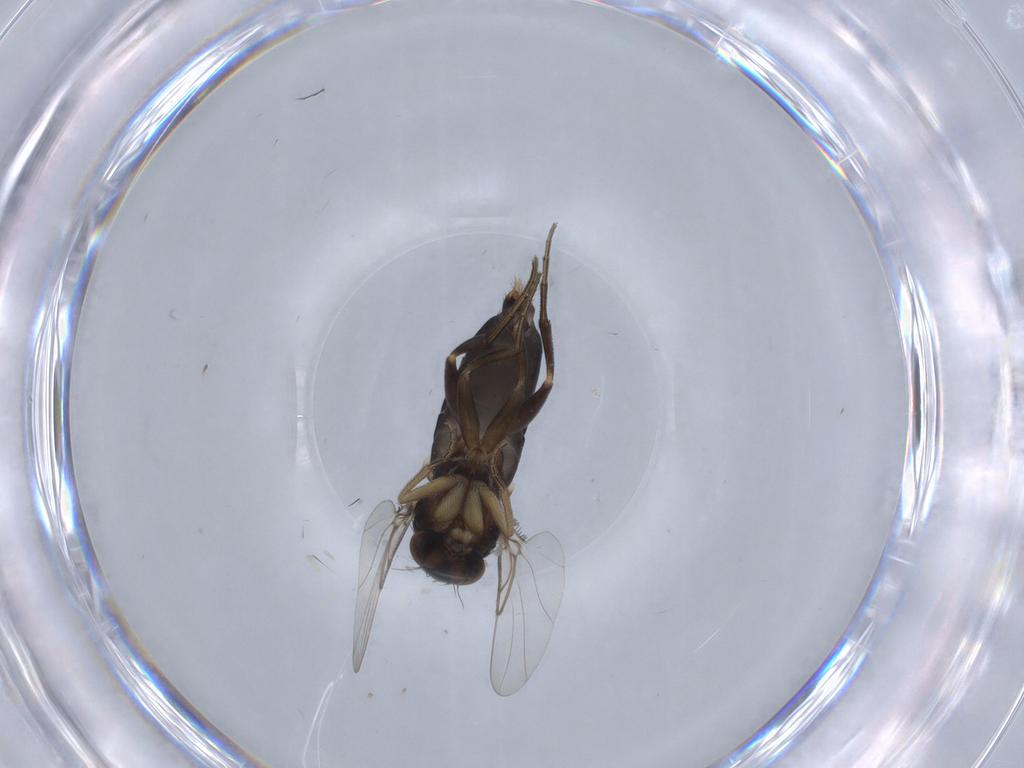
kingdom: Animalia
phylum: Arthropoda
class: Insecta
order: Diptera
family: Phoridae
